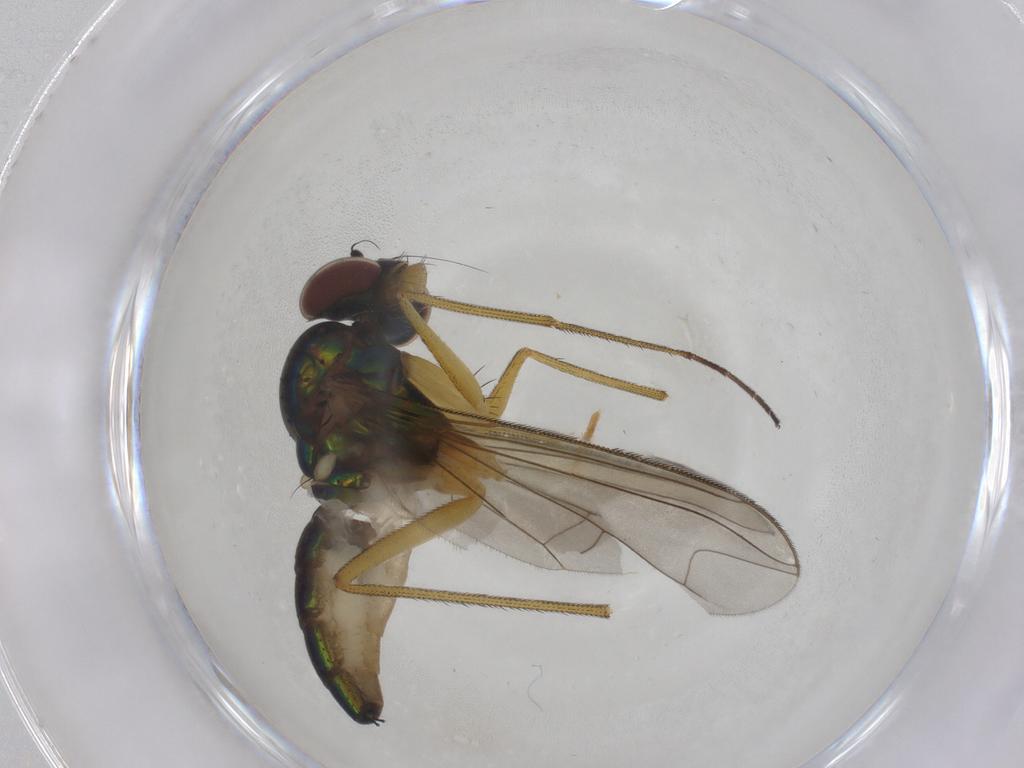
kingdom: Animalia
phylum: Arthropoda
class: Insecta
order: Diptera
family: Dolichopodidae
